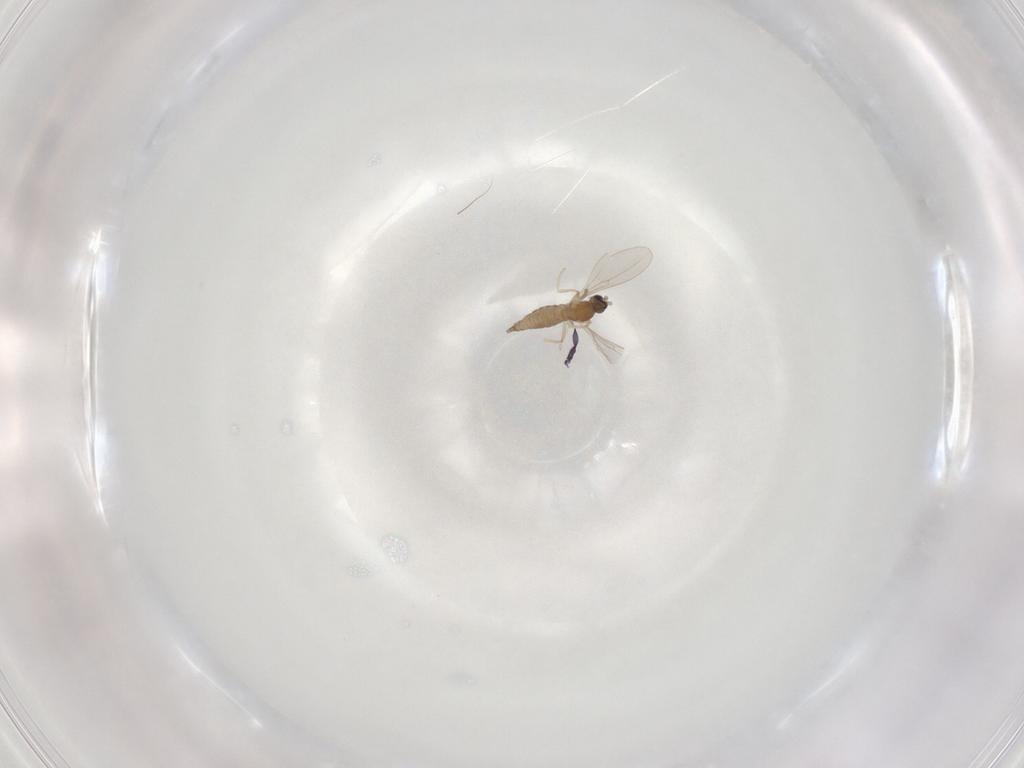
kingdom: Animalia
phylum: Arthropoda
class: Insecta
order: Diptera
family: Cecidomyiidae
